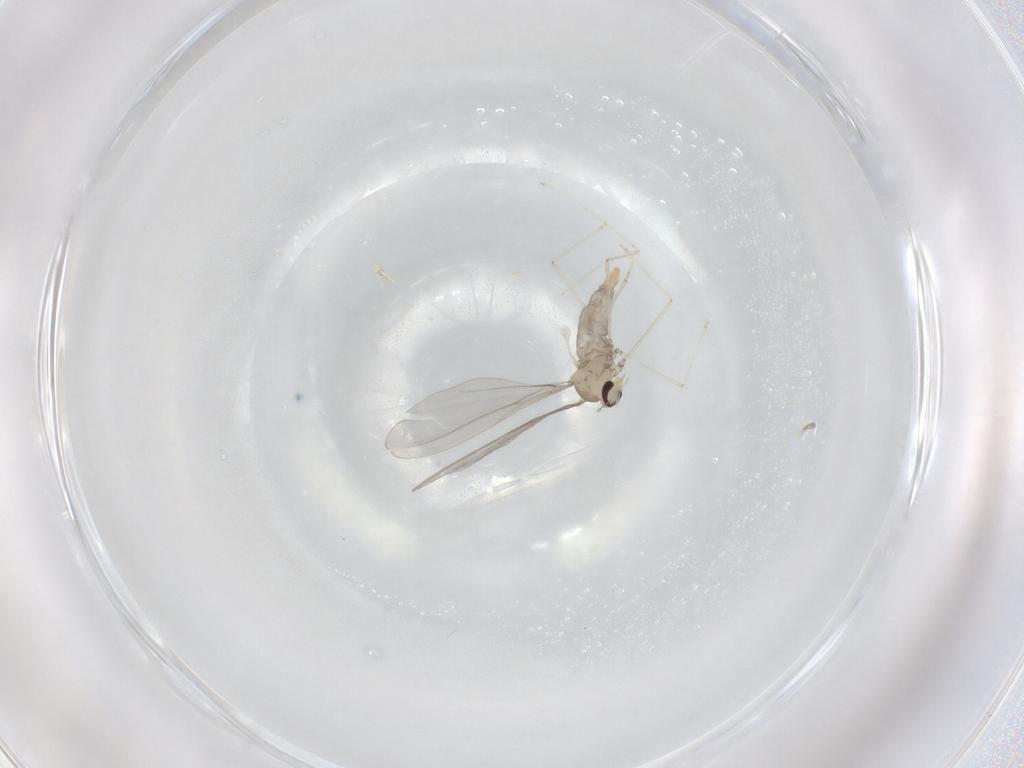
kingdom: Animalia
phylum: Arthropoda
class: Insecta
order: Diptera
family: Cecidomyiidae
